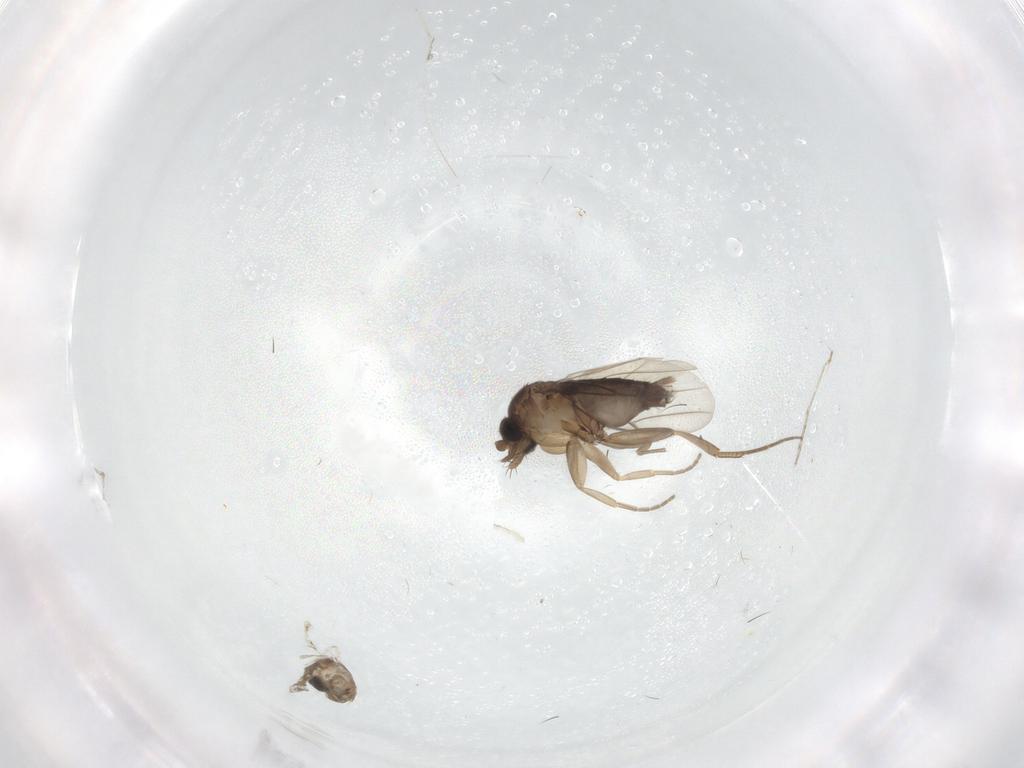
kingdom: Animalia
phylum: Arthropoda
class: Insecta
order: Diptera
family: Phoridae
